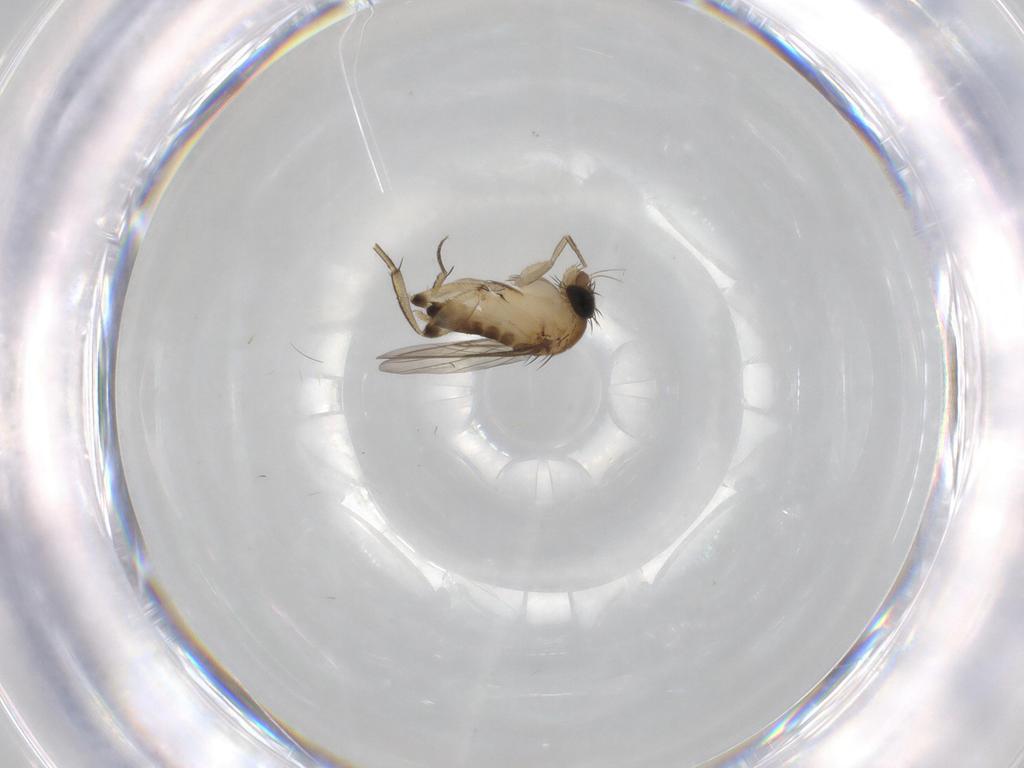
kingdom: Animalia
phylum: Arthropoda
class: Insecta
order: Diptera
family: Phoridae
